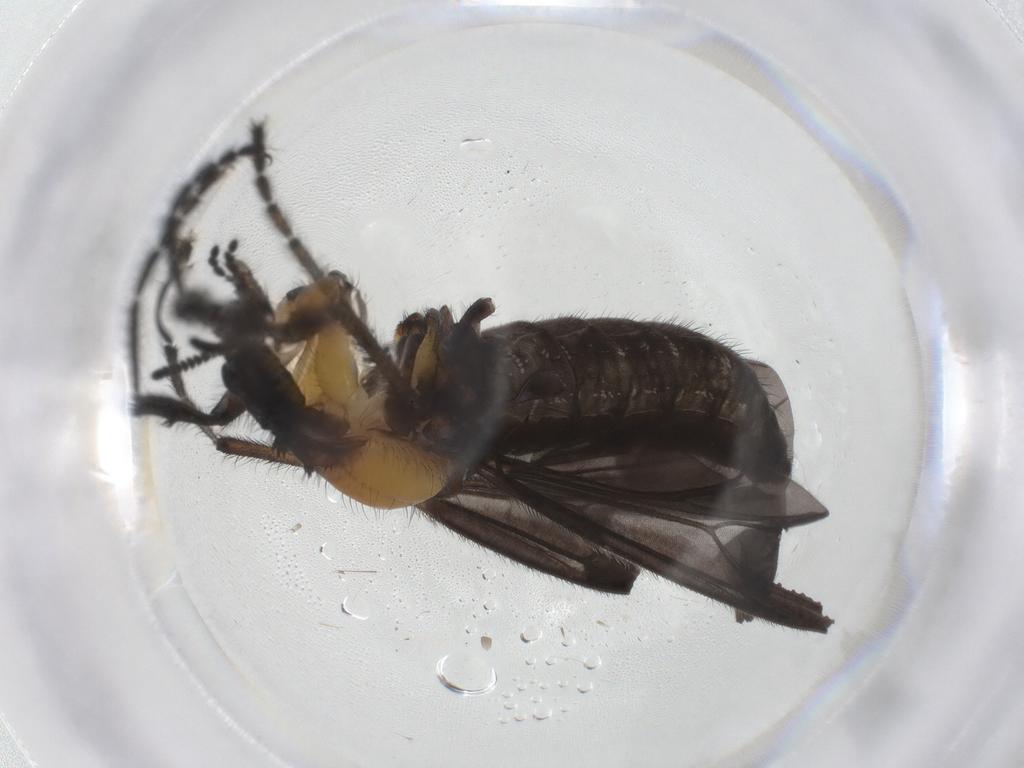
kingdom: Animalia
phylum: Arthropoda
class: Insecta
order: Diptera
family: Bibionidae
